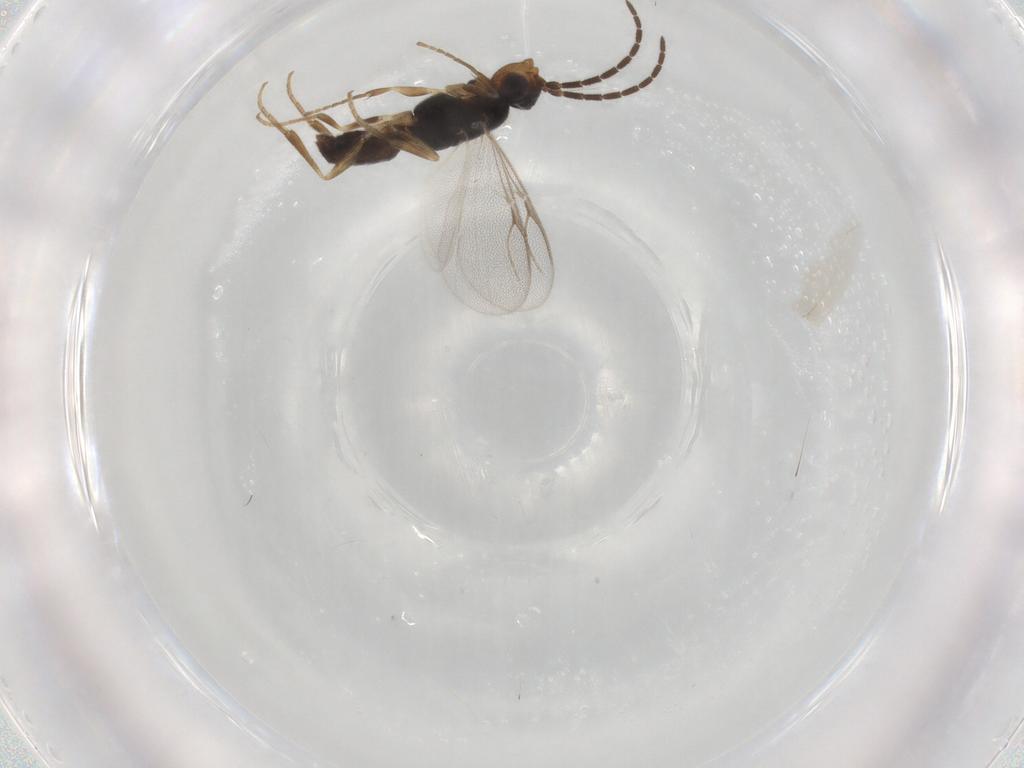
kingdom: Animalia
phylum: Arthropoda
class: Insecta
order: Hymenoptera
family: Dryinidae
